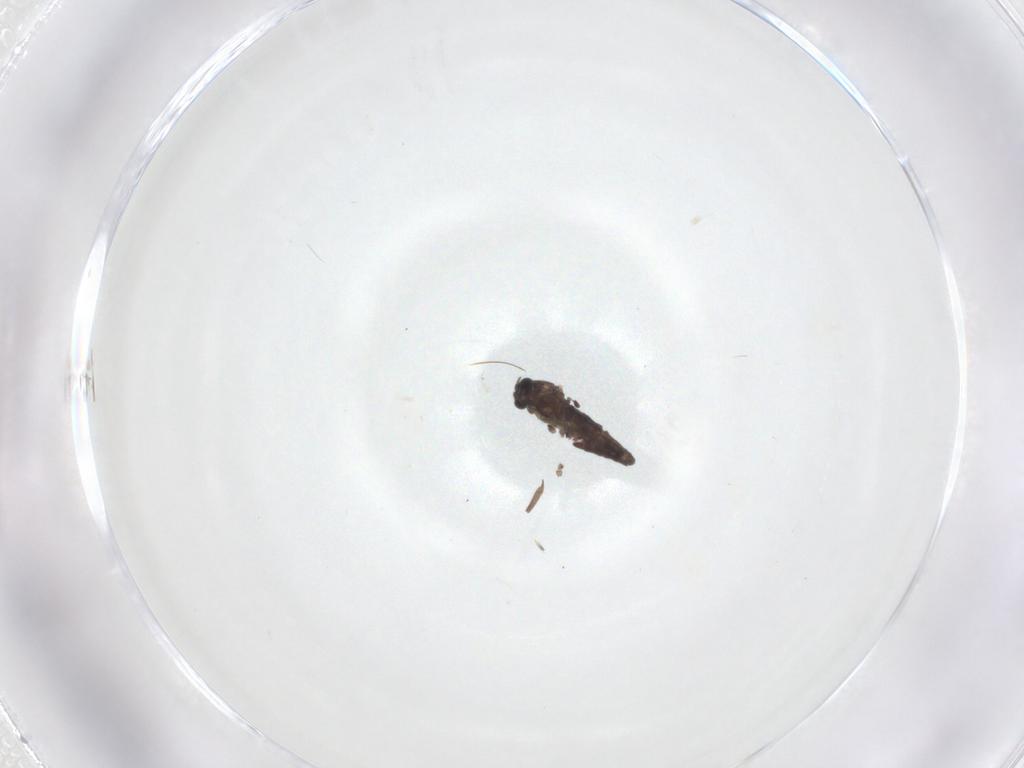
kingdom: Animalia
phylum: Arthropoda
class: Insecta
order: Diptera
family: Chironomidae
